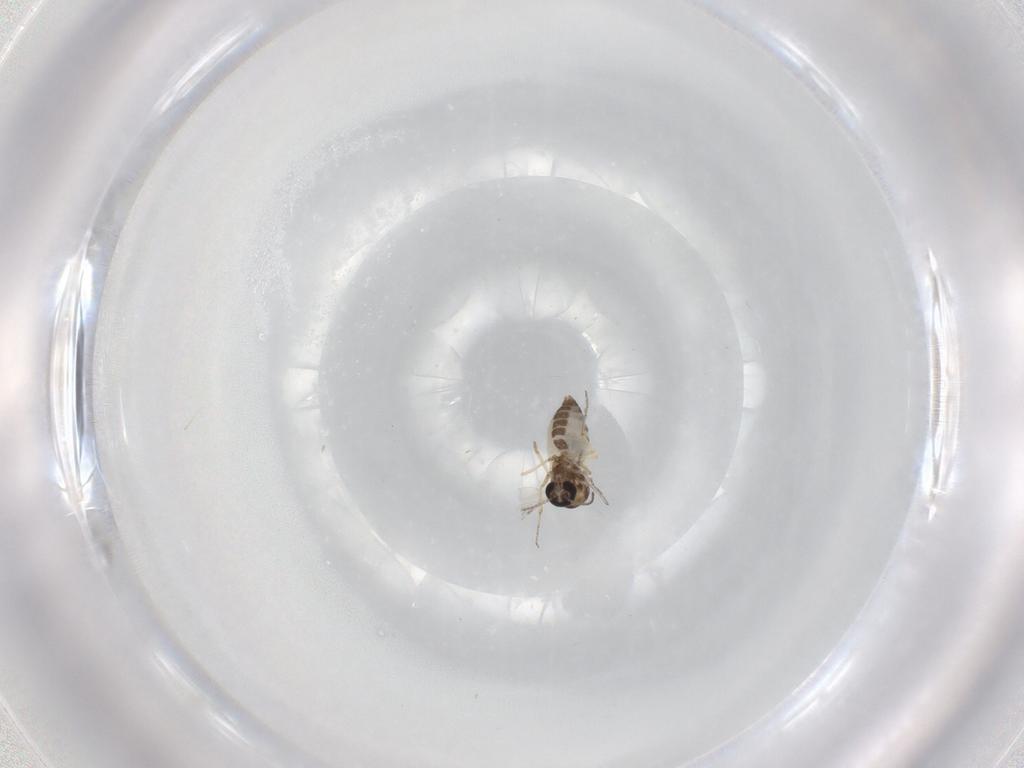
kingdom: Animalia
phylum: Arthropoda
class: Insecta
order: Diptera
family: Ceratopogonidae
